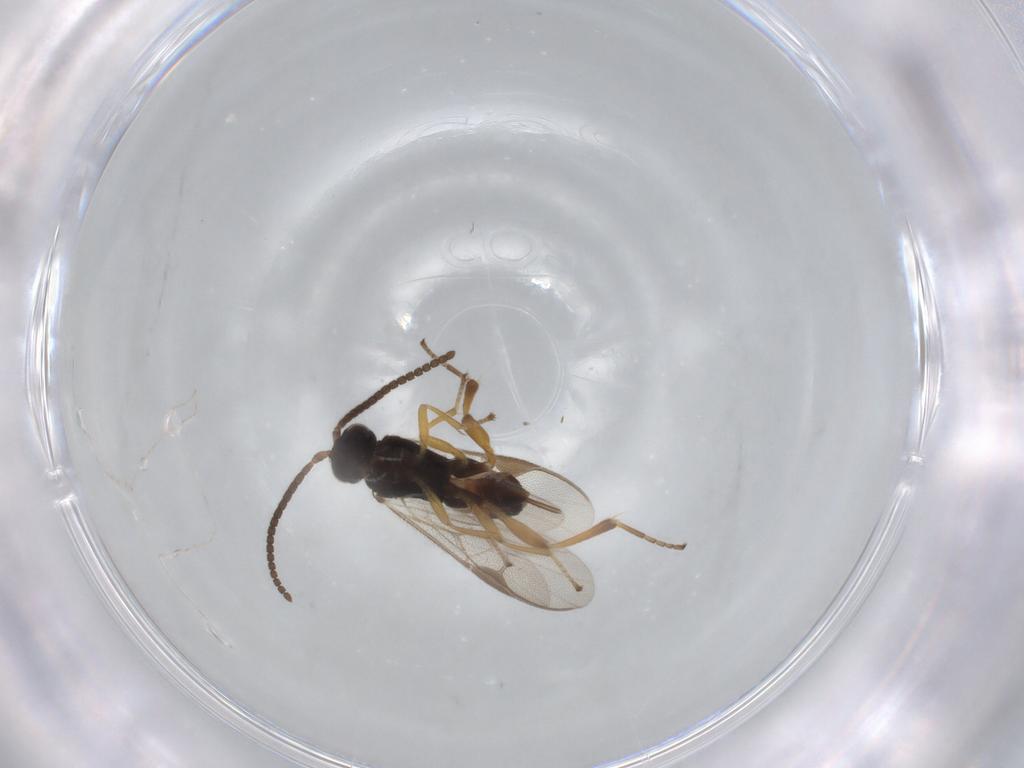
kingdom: Animalia
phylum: Arthropoda
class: Insecta
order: Hymenoptera
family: Braconidae
